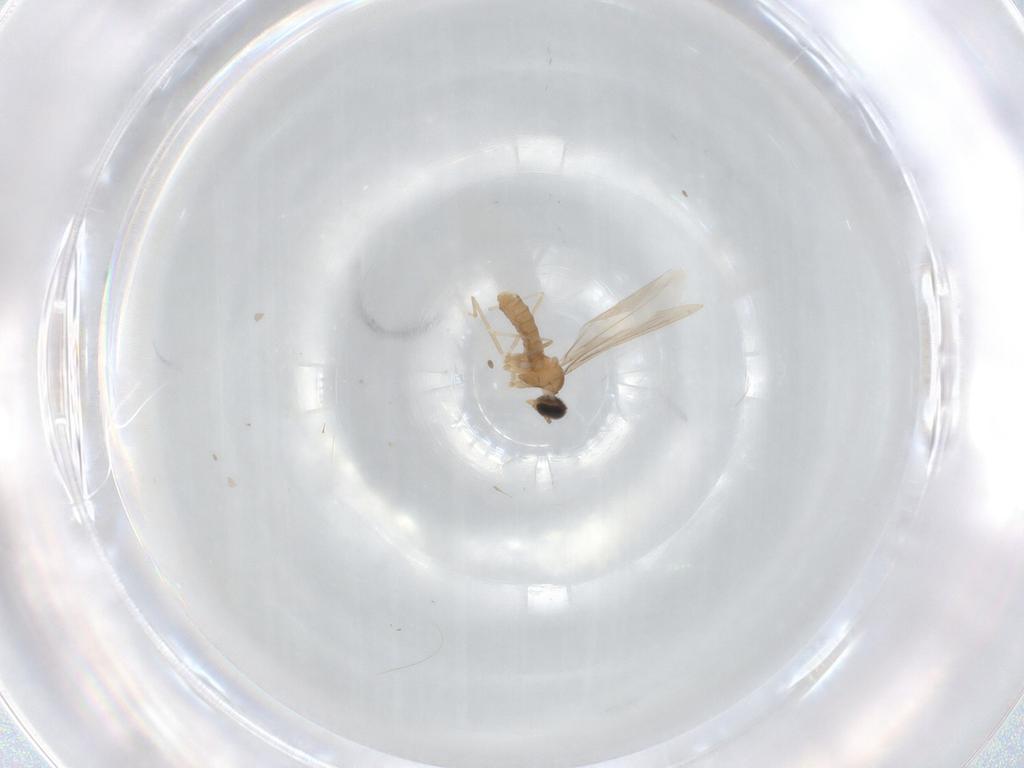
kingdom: Animalia
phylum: Arthropoda
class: Insecta
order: Diptera
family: Cecidomyiidae
